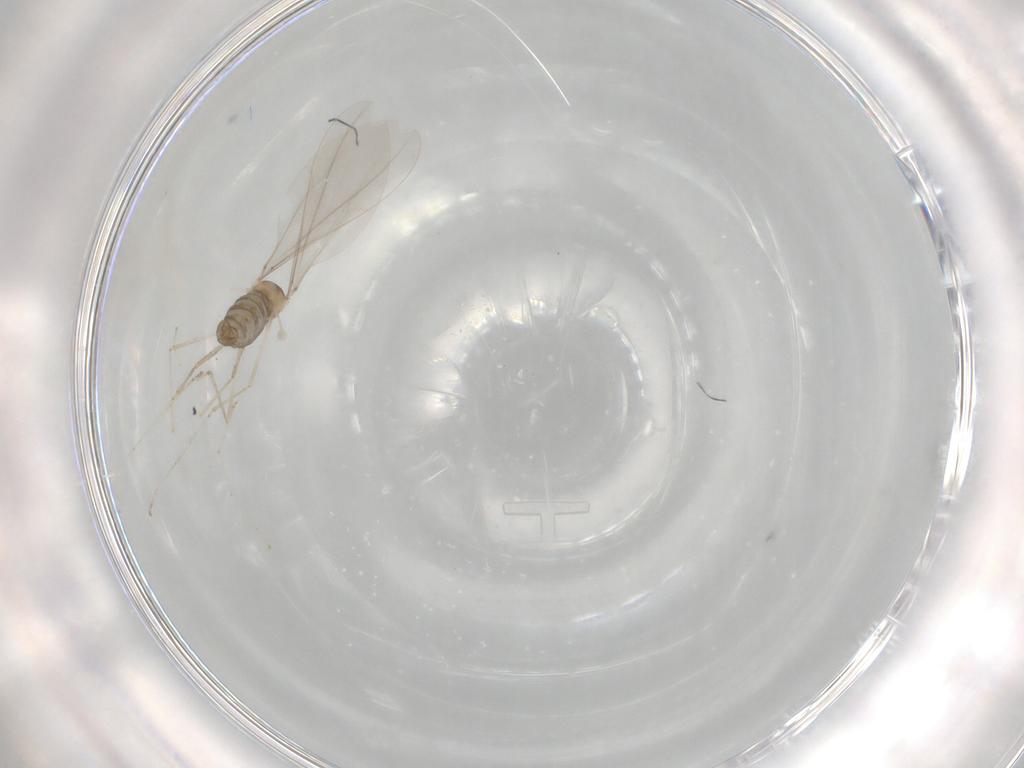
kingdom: Animalia
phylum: Arthropoda
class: Insecta
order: Diptera
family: Cecidomyiidae
